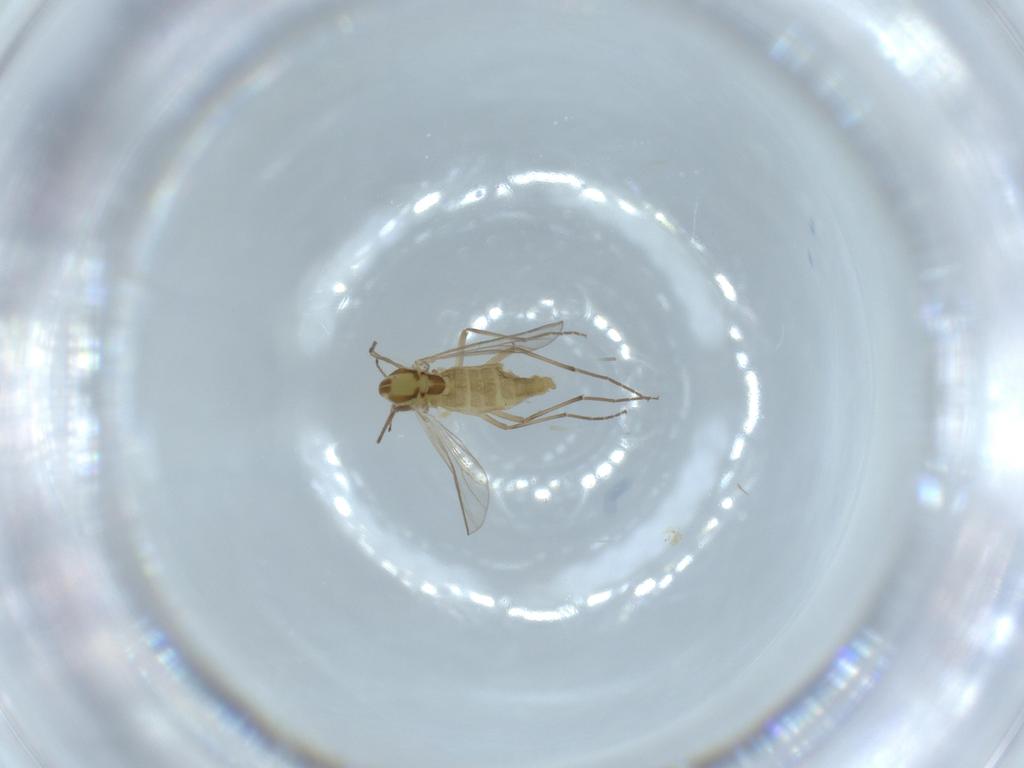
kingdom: Animalia
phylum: Arthropoda
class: Insecta
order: Diptera
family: Chironomidae
